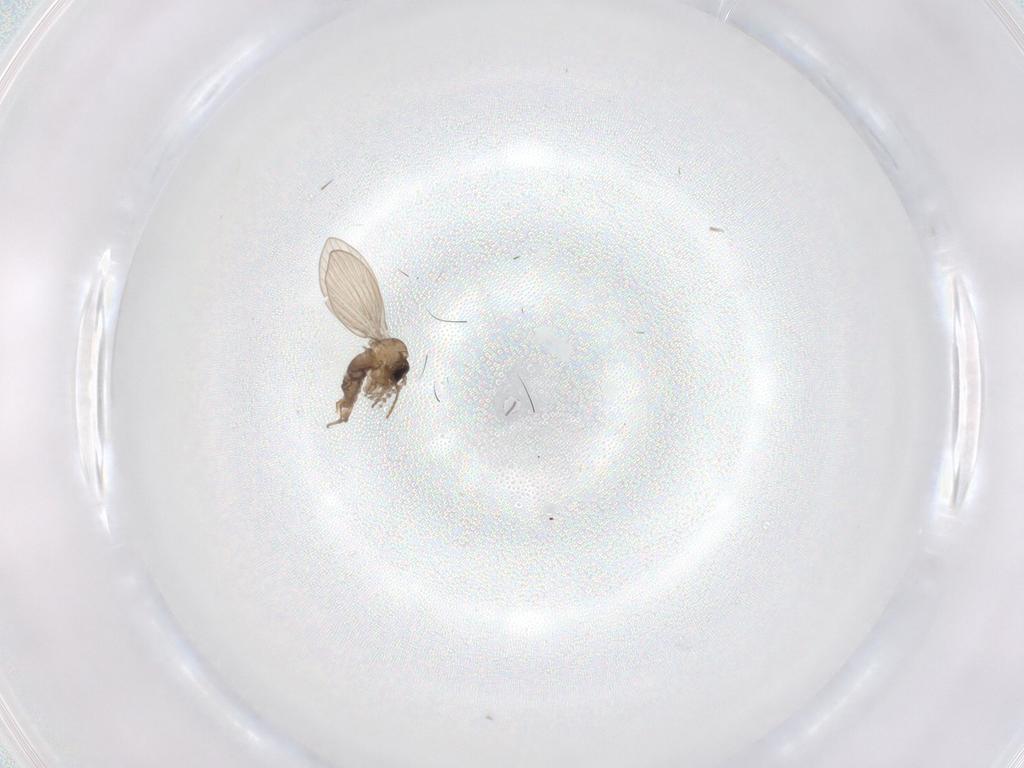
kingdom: Animalia
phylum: Arthropoda
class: Insecta
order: Diptera
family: Psychodidae
